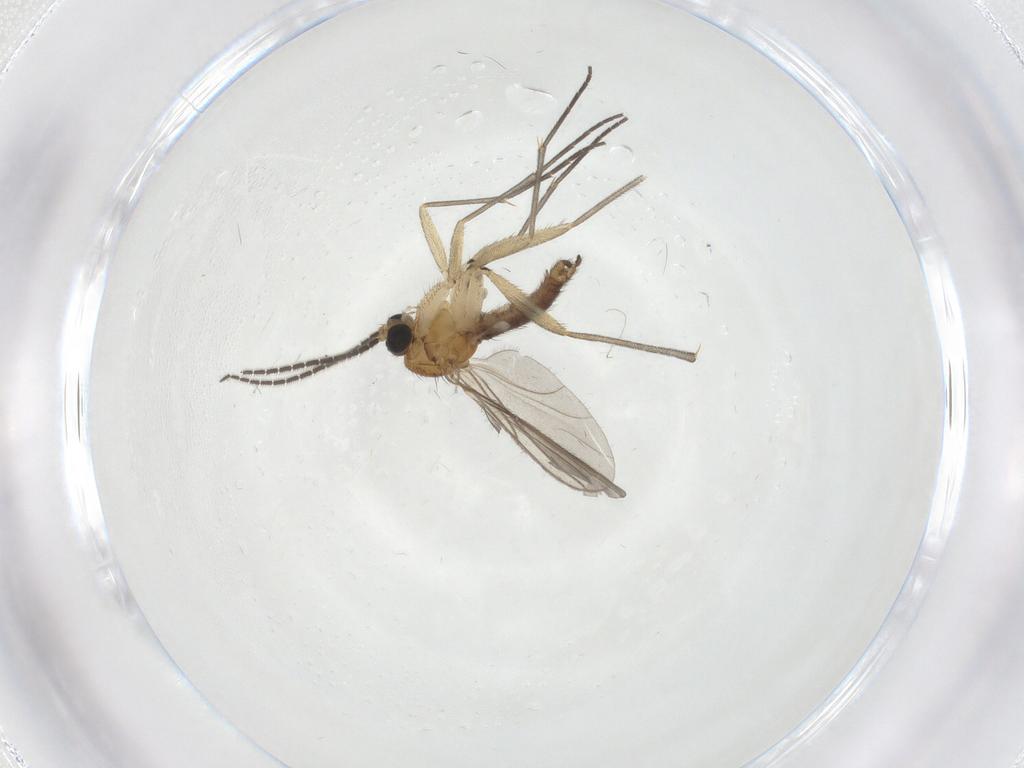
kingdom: Animalia
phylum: Arthropoda
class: Insecta
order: Diptera
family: Sciaridae
